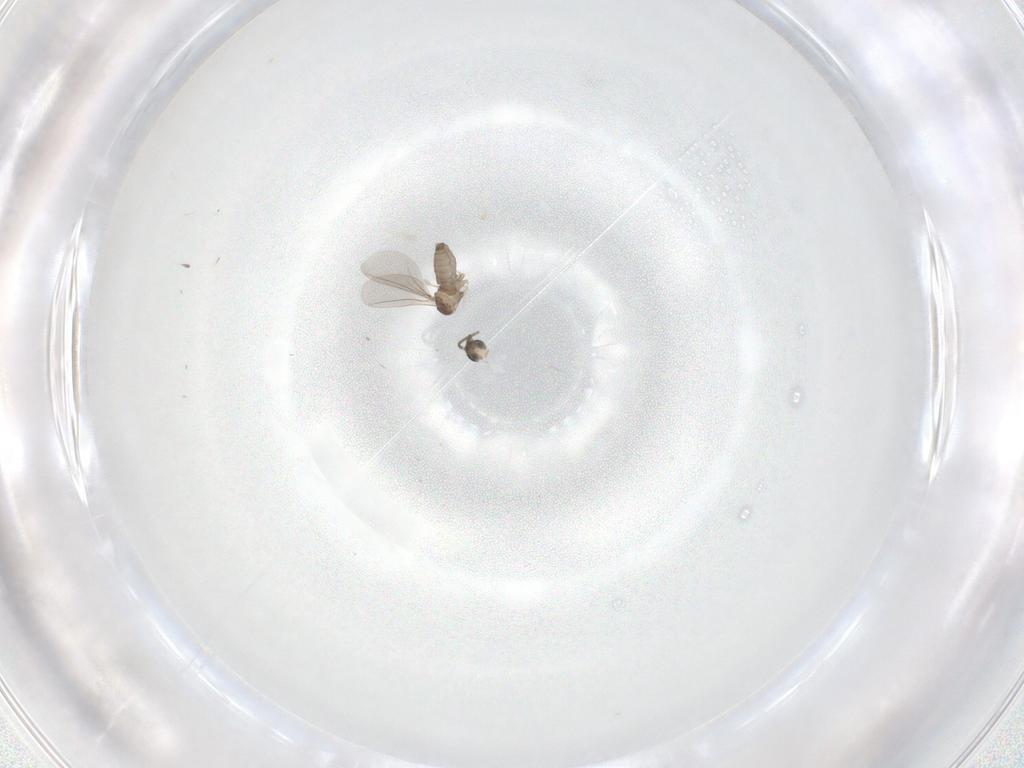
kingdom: Animalia
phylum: Arthropoda
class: Insecta
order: Diptera
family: Cecidomyiidae
